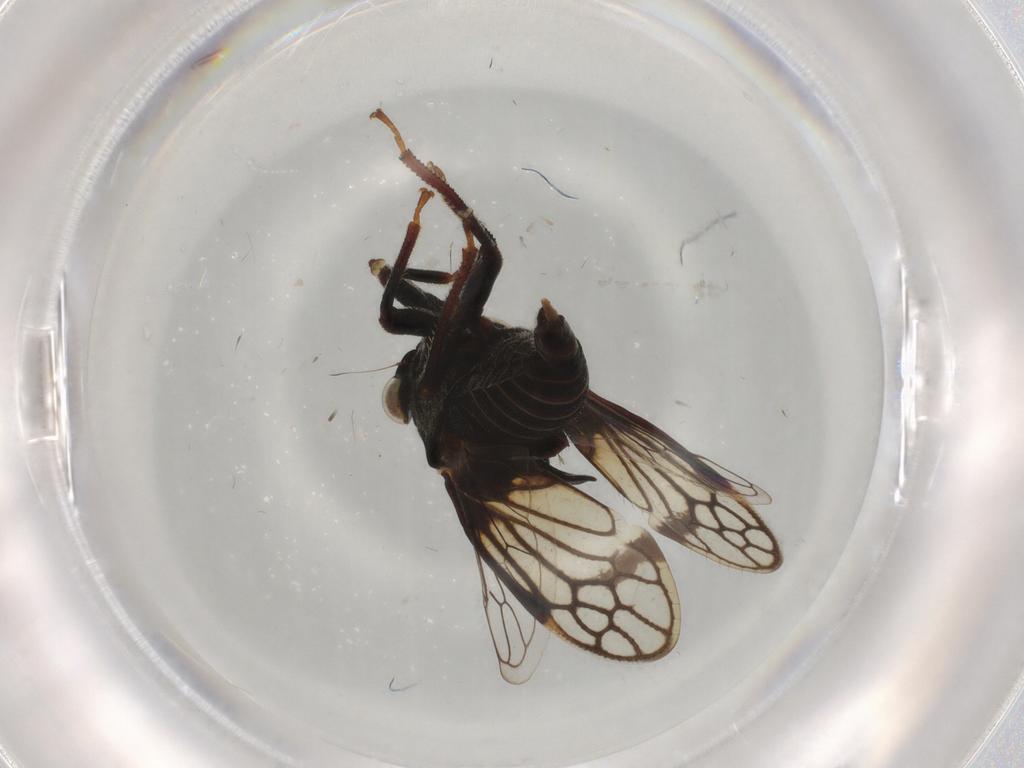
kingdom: Animalia
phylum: Arthropoda
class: Insecta
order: Hemiptera
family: Membracidae
